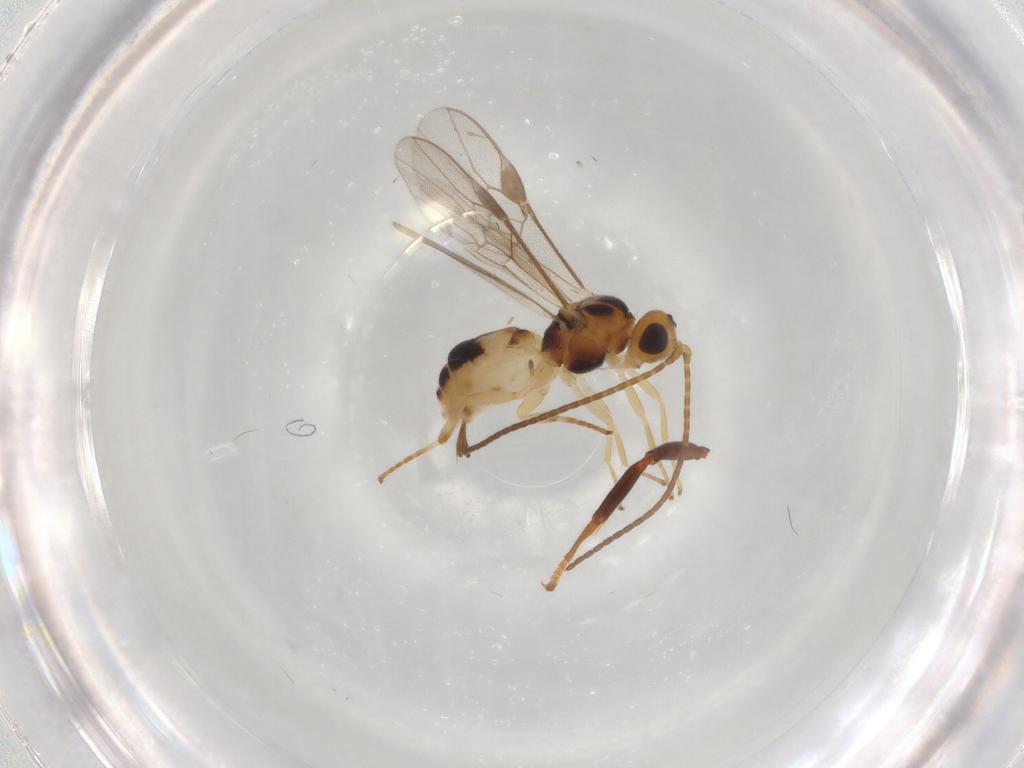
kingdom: Animalia
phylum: Arthropoda
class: Insecta
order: Hymenoptera
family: Braconidae
